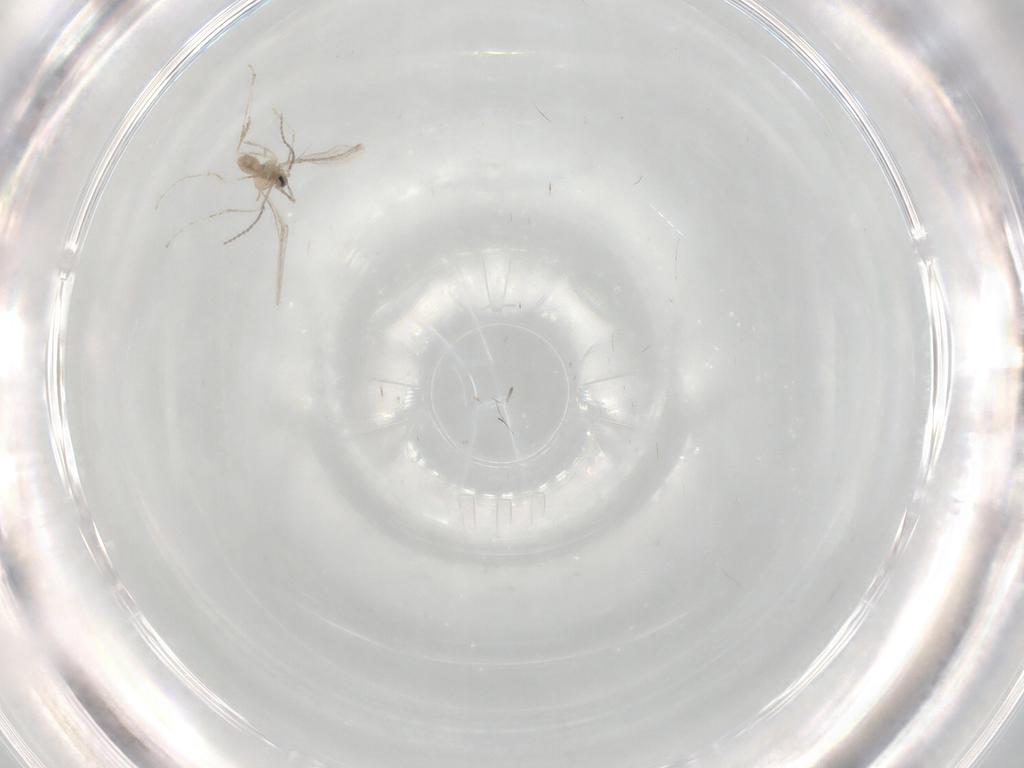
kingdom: Animalia
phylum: Arthropoda
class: Insecta
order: Diptera
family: Cecidomyiidae
